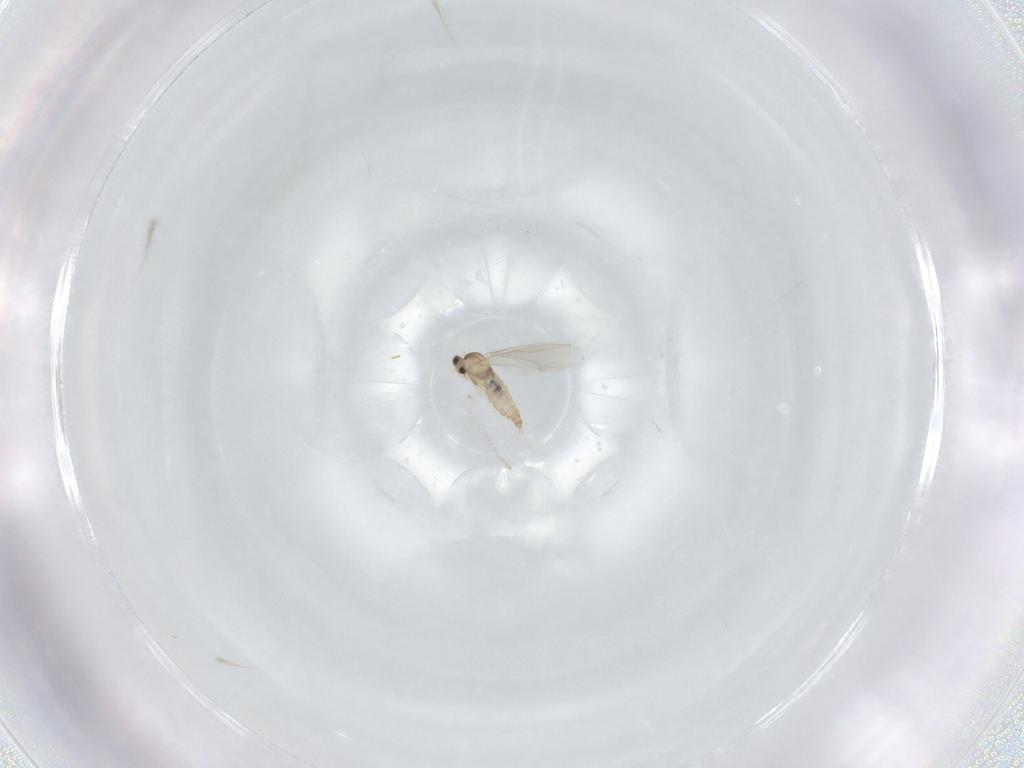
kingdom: Animalia
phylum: Arthropoda
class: Insecta
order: Diptera
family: Cecidomyiidae
